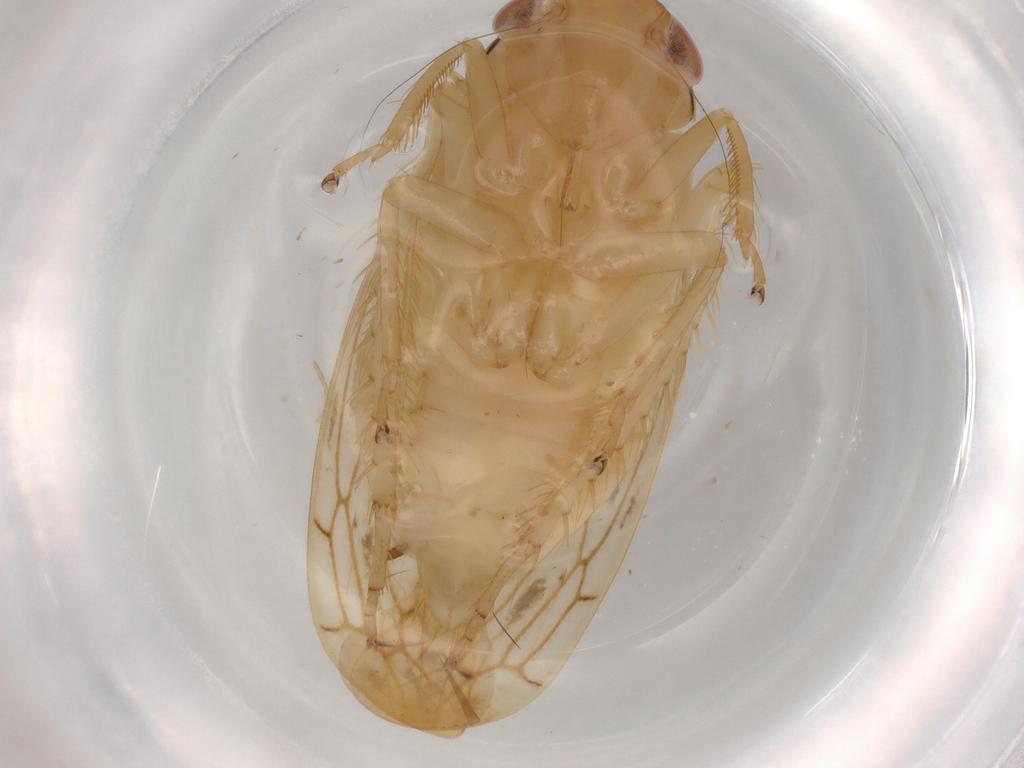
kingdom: Animalia
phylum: Arthropoda
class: Insecta
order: Hemiptera
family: Cicadellidae
